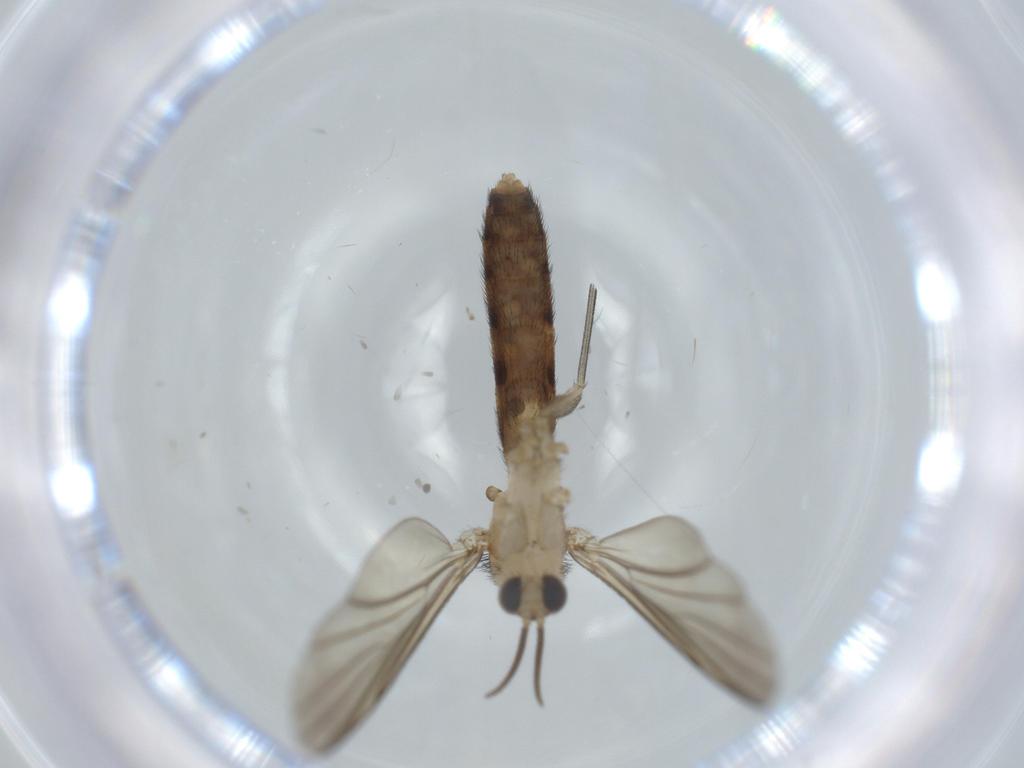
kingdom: Animalia
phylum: Arthropoda
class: Insecta
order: Diptera
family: Keroplatidae
